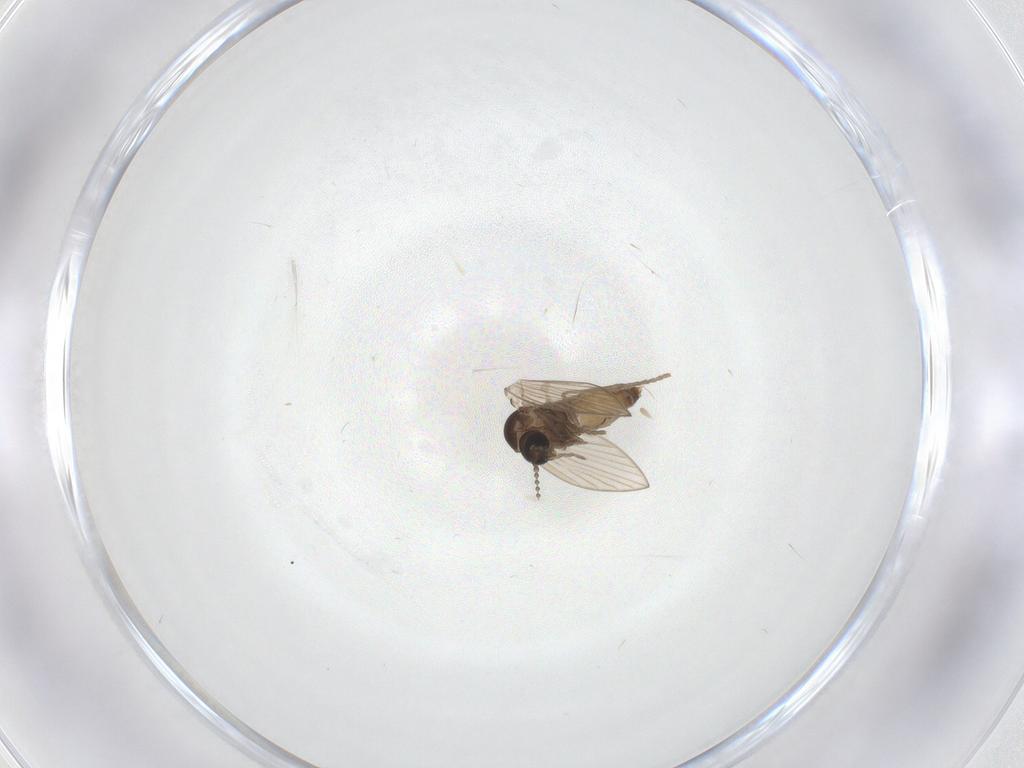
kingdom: Animalia
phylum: Arthropoda
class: Insecta
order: Diptera
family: Psychodidae
